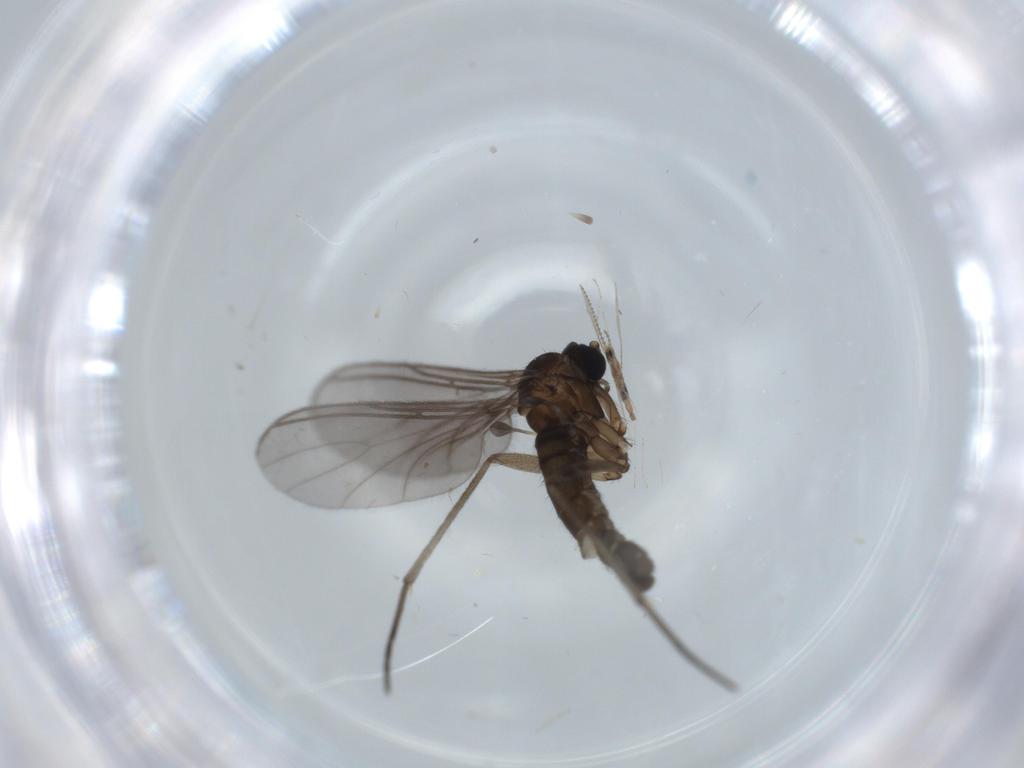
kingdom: Animalia
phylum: Arthropoda
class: Insecta
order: Diptera
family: Sciaridae
